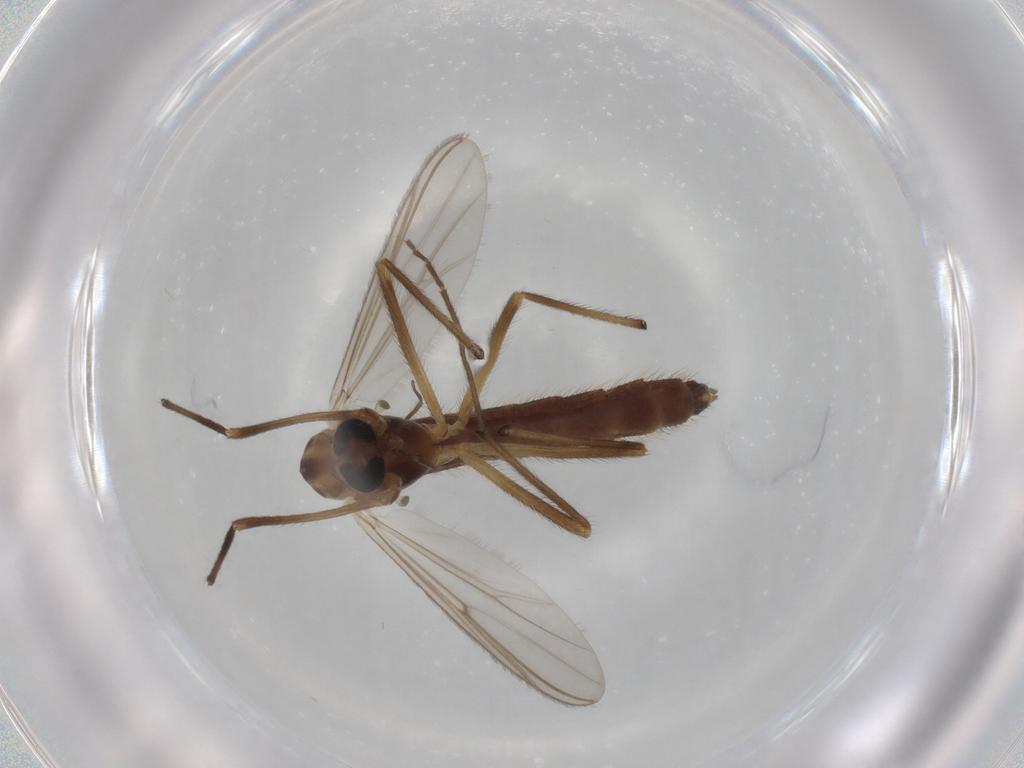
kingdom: Animalia
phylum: Arthropoda
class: Insecta
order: Diptera
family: Chironomidae
